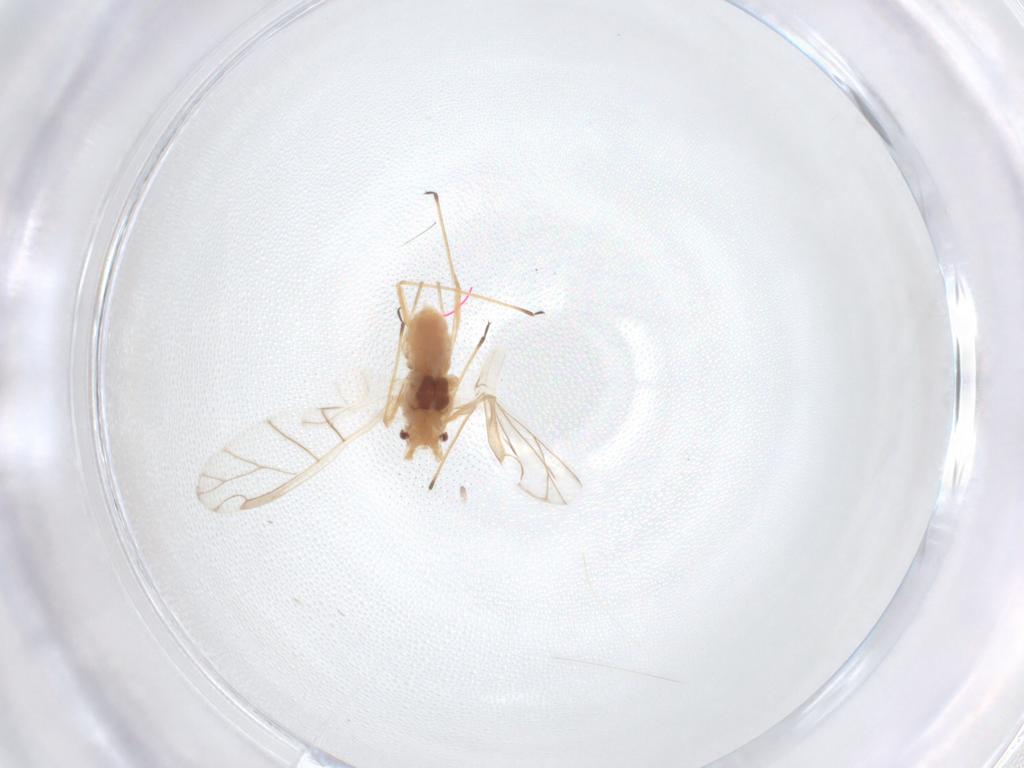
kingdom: Animalia
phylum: Arthropoda
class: Insecta
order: Hemiptera
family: Aphididae
